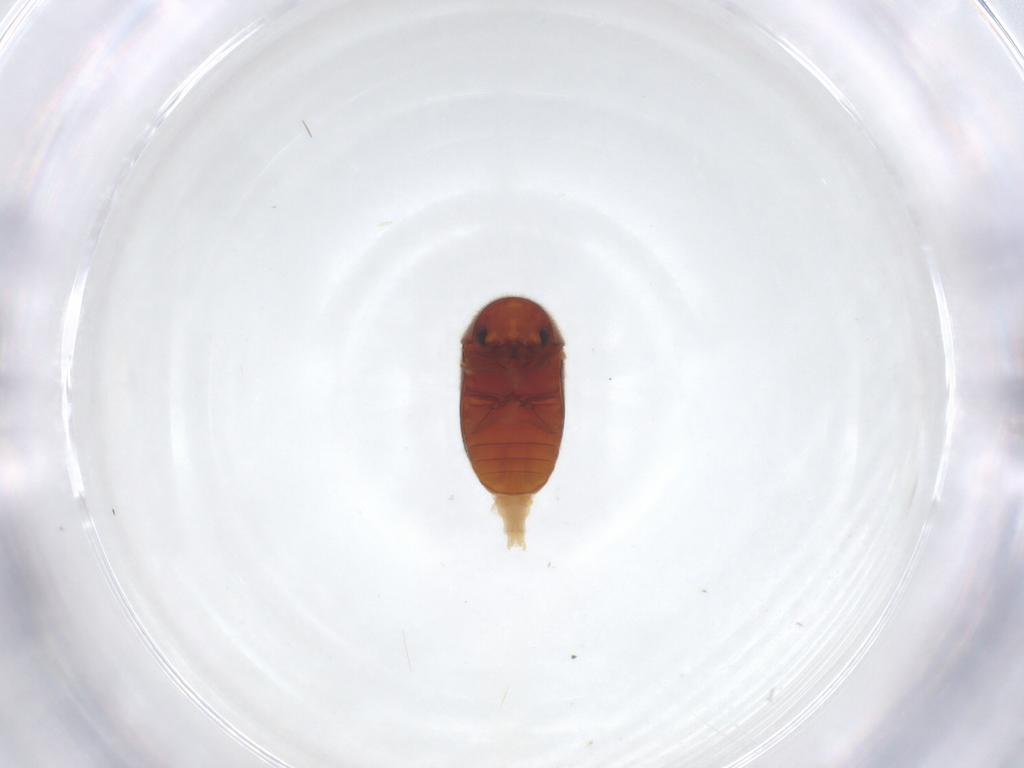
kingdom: Animalia
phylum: Arthropoda
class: Insecta
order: Coleoptera
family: Ptinidae
